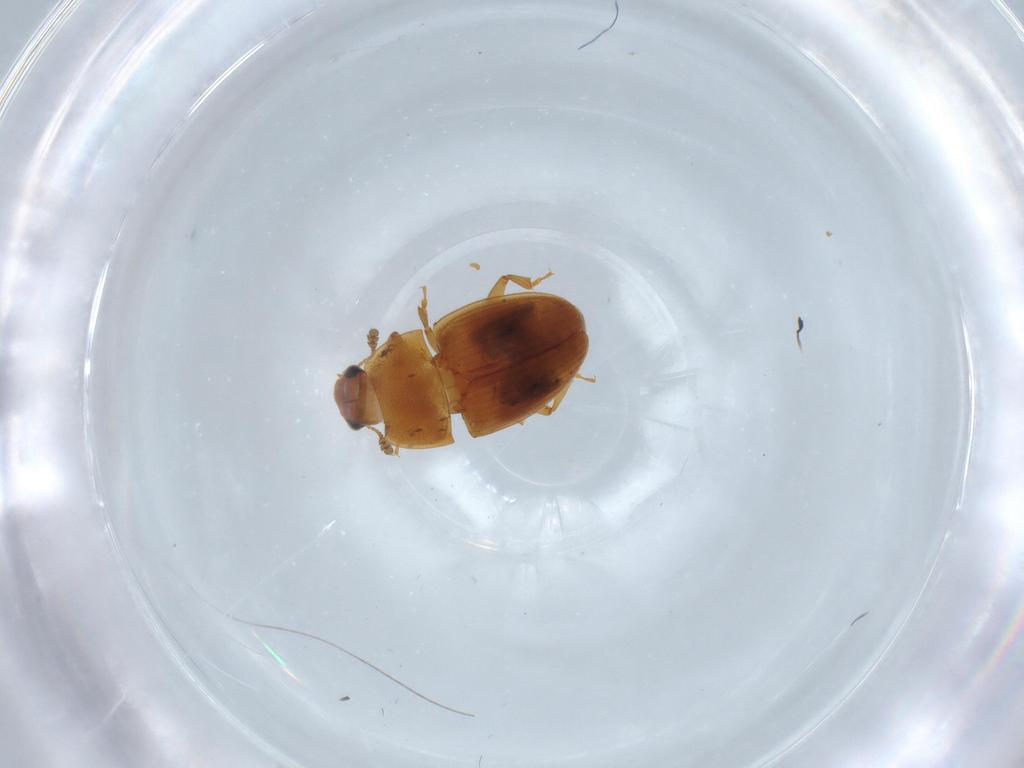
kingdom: Animalia
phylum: Arthropoda
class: Insecta
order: Coleoptera
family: Nitidulidae
